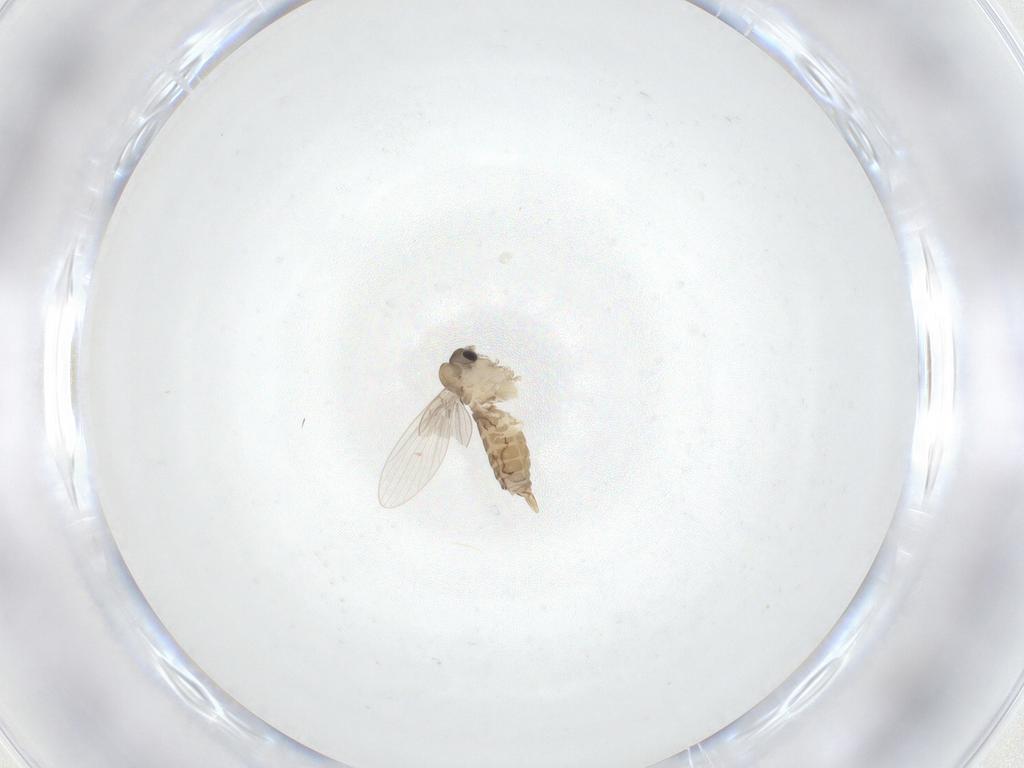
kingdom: Animalia
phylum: Arthropoda
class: Insecta
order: Diptera
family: Psychodidae
